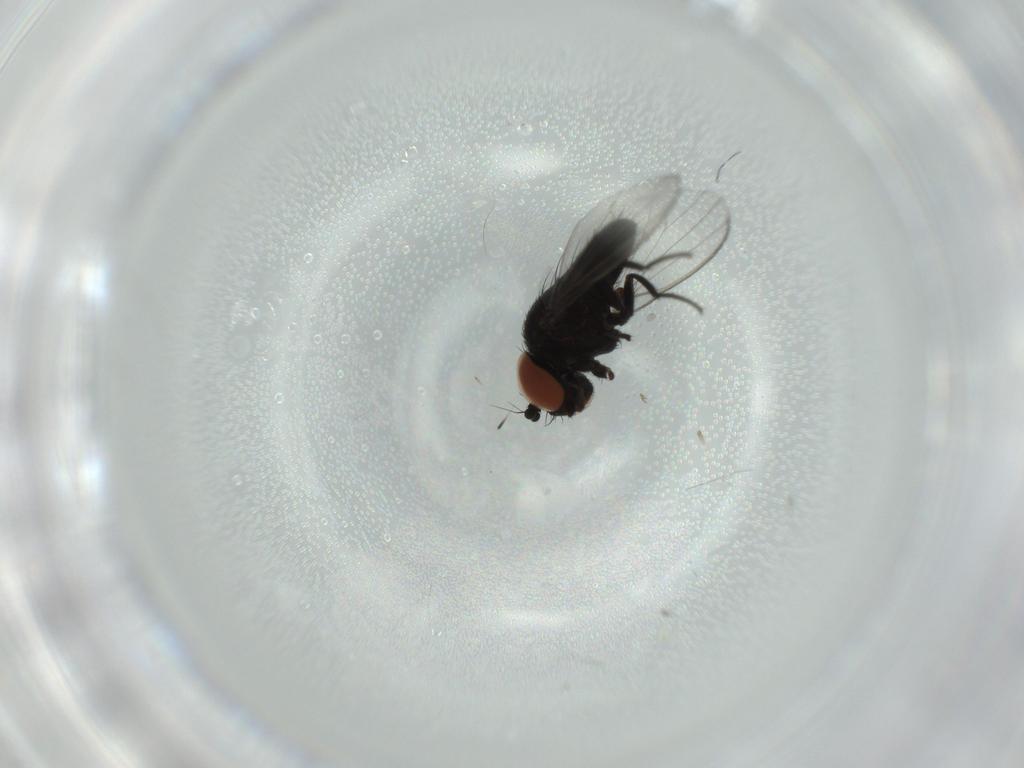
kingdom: Animalia
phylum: Arthropoda
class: Insecta
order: Diptera
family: Milichiidae
